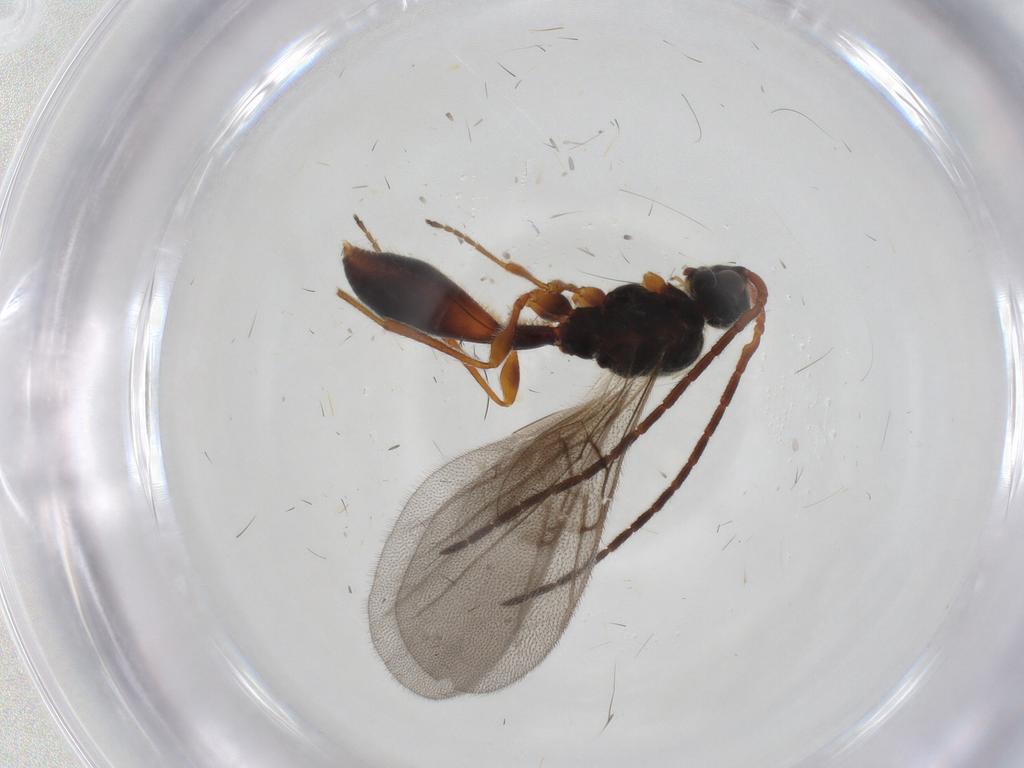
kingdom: Animalia
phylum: Arthropoda
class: Insecta
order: Hymenoptera
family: Diapriidae
